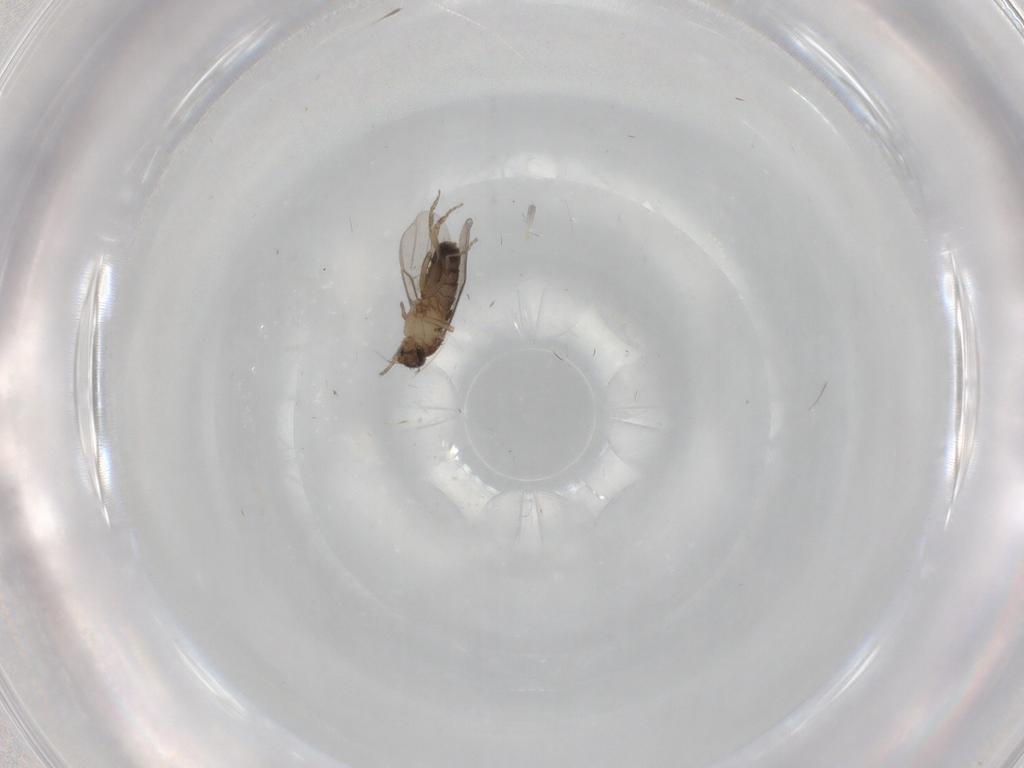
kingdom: Animalia
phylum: Arthropoda
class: Insecta
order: Diptera
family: Phoridae
